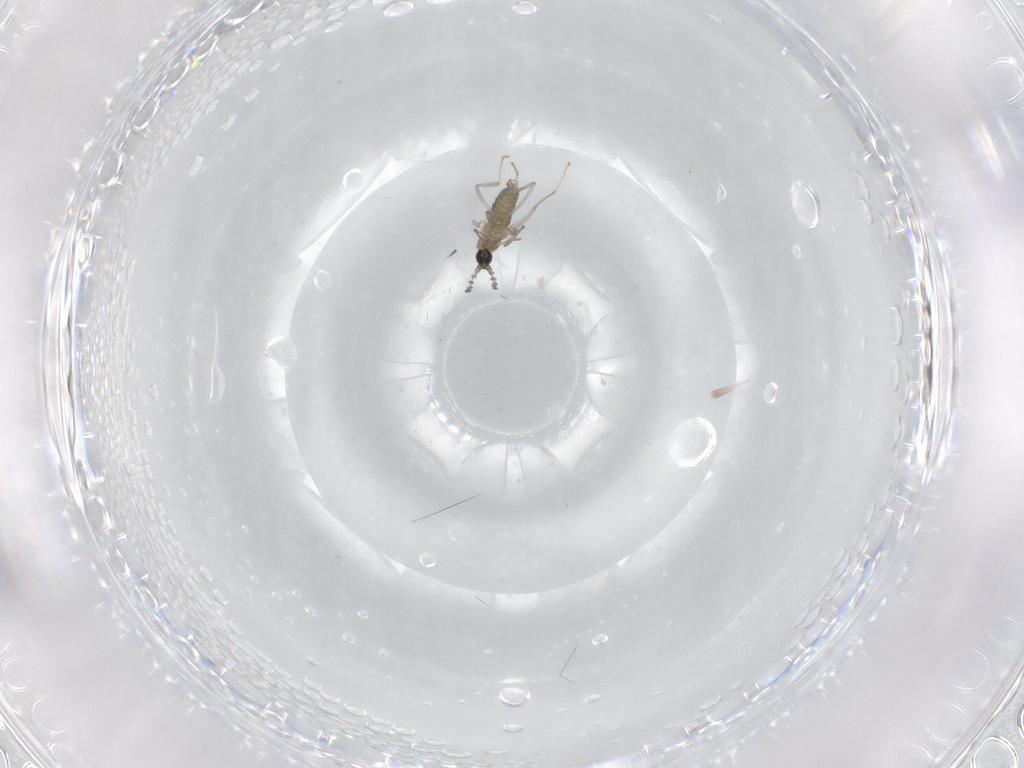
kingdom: Animalia
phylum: Arthropoda
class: Insecta
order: Diptera
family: Cecidomyiidae
